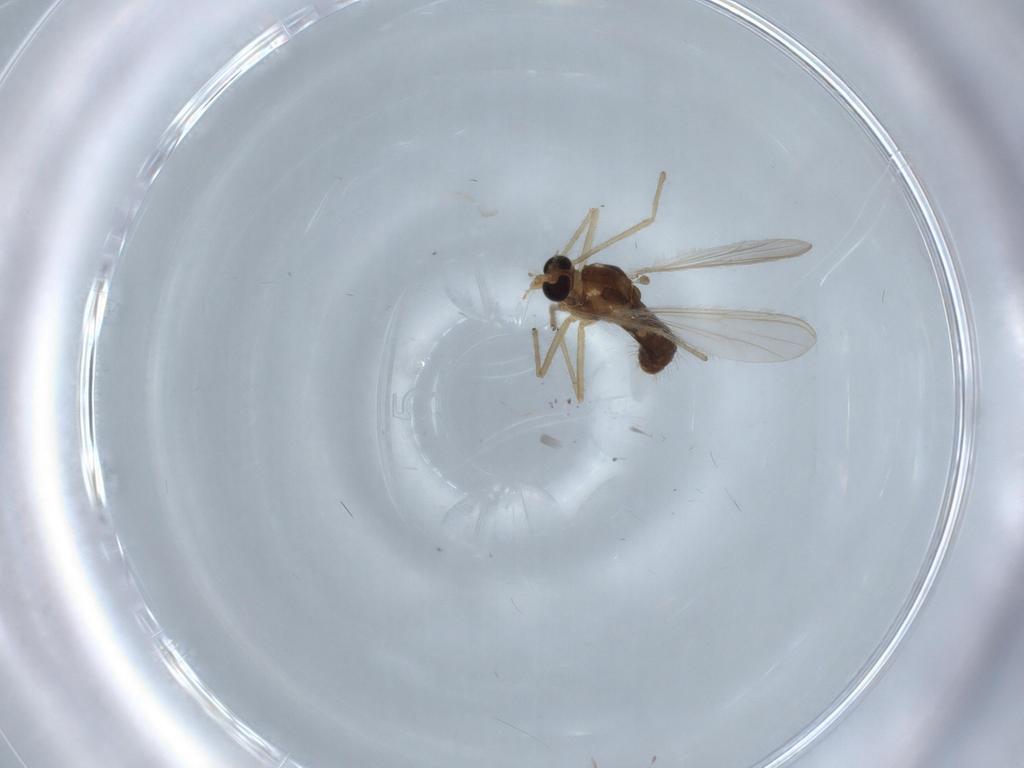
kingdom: Animalia
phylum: Arthropoda
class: Insecta
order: Diptera
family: Chironomidae
